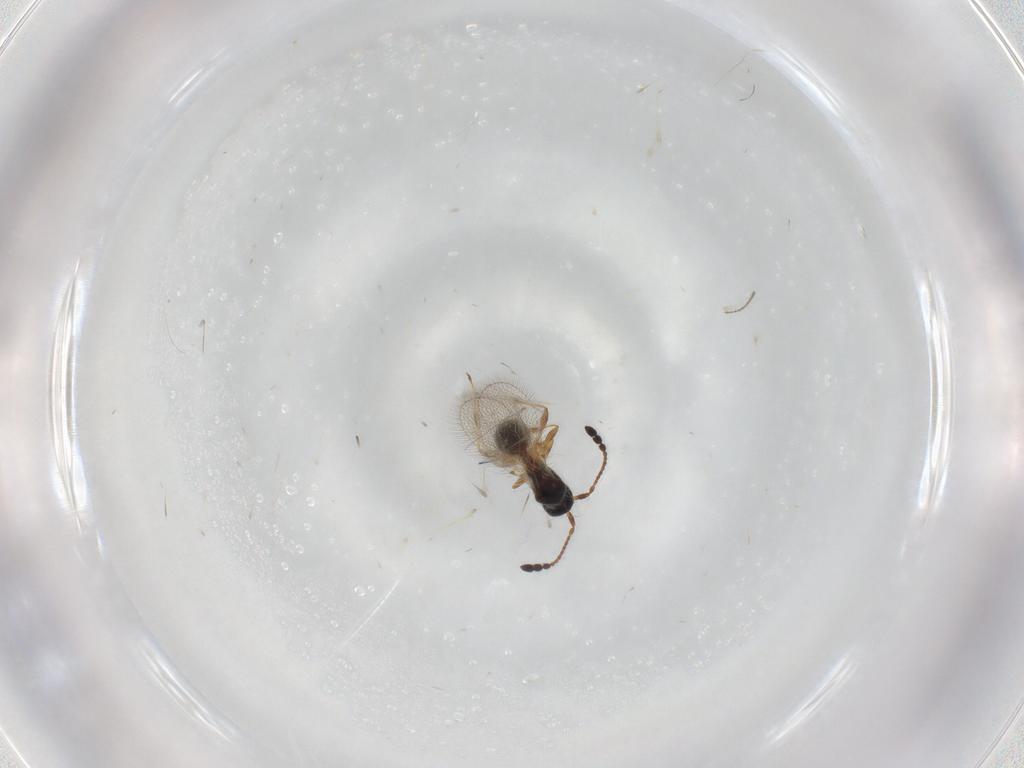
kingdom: Animalia
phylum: Arthropoda
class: Insecta
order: Hymenoptera
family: Diapriidae
